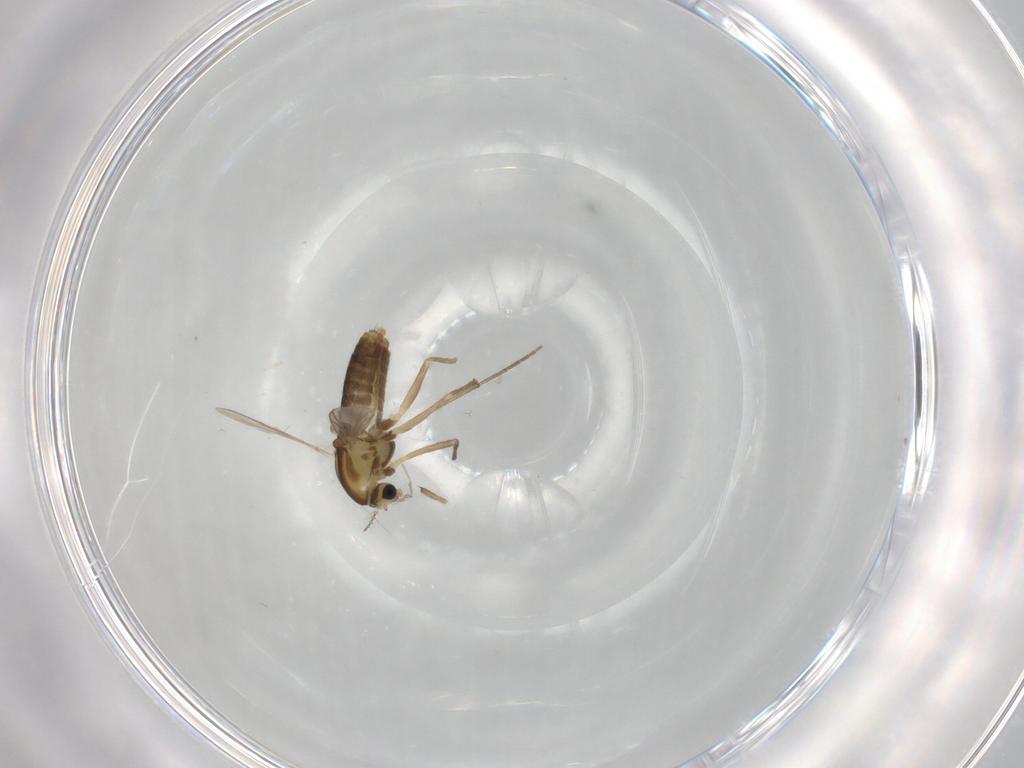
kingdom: Animalia
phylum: Arthropoda
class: Insecta
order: Diptera
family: Chironomidae
